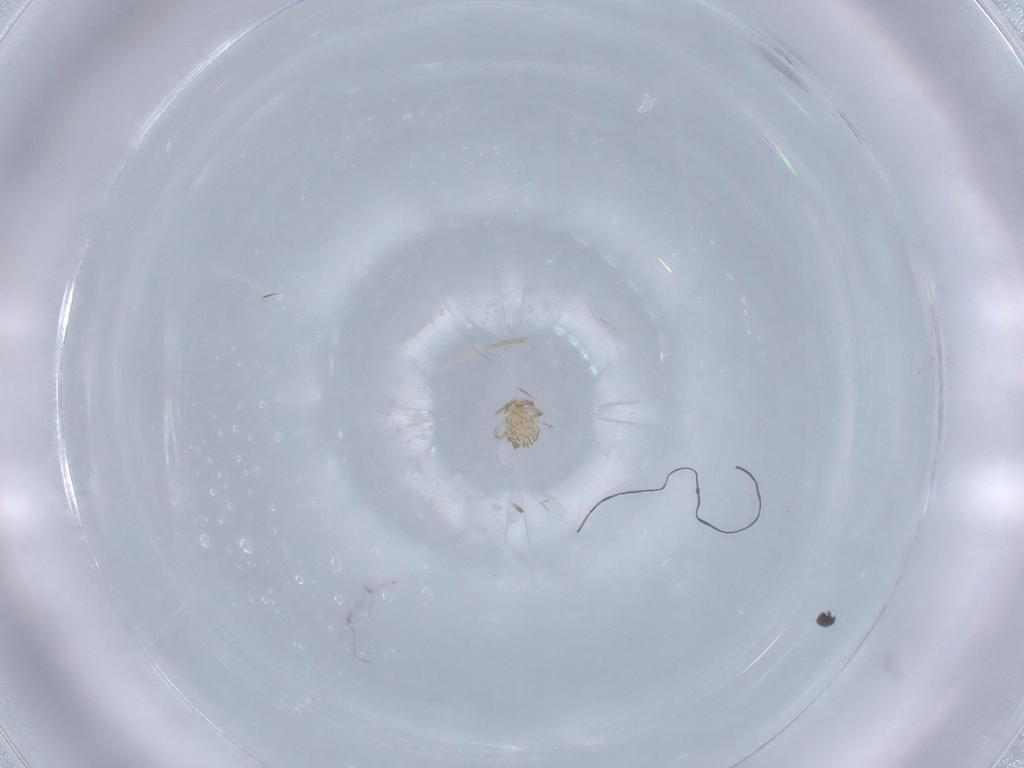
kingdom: Animalia
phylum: Arthropoda
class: Arachnida
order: Trombidiformes
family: Erythraeidae
